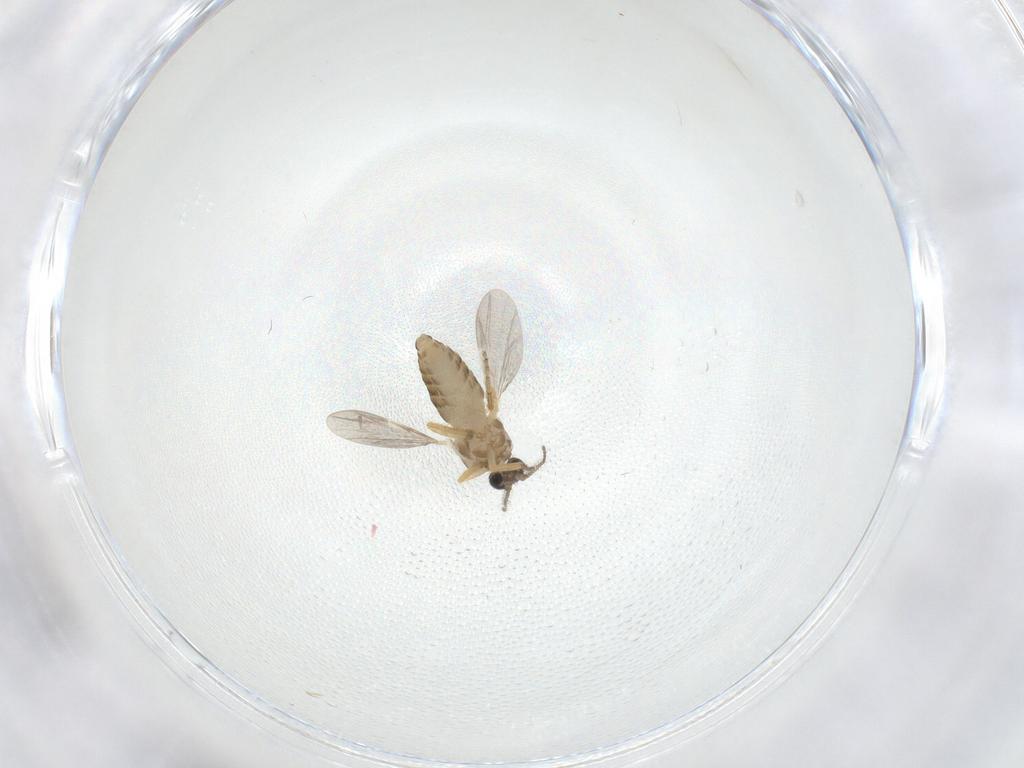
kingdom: Animalia
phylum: Arthropoda
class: Insecta
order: Diptera
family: Ceratopogonidae
